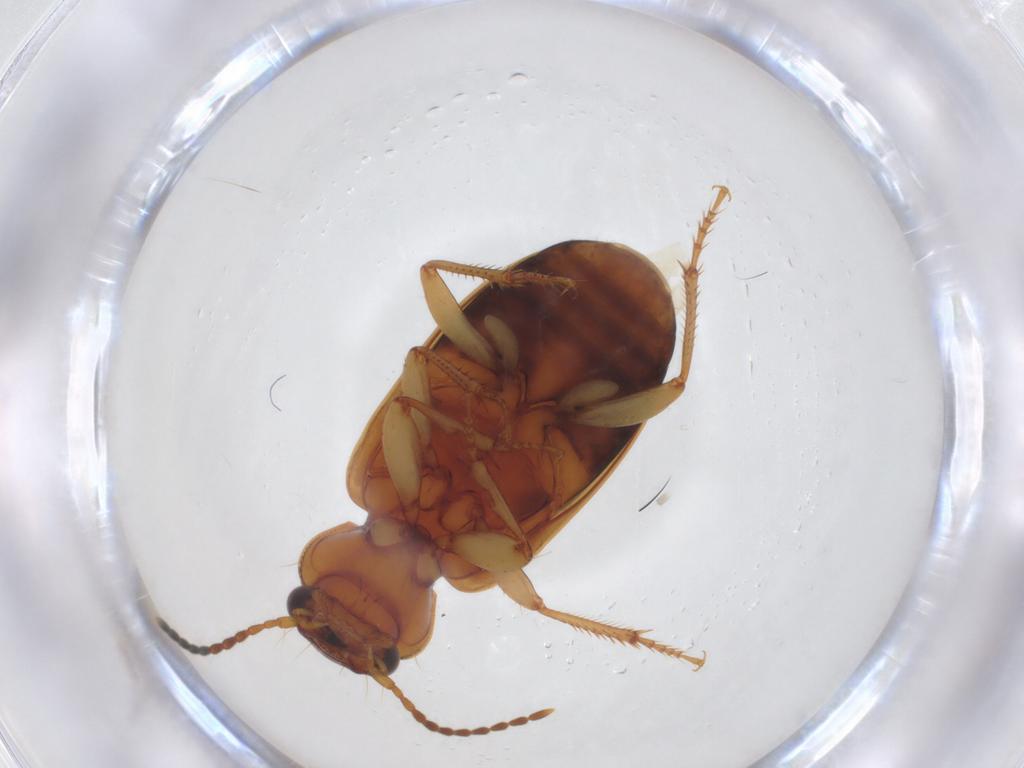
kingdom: Animalia
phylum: Arthropoda
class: Insecta
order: Coleoptera
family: Carabidae
